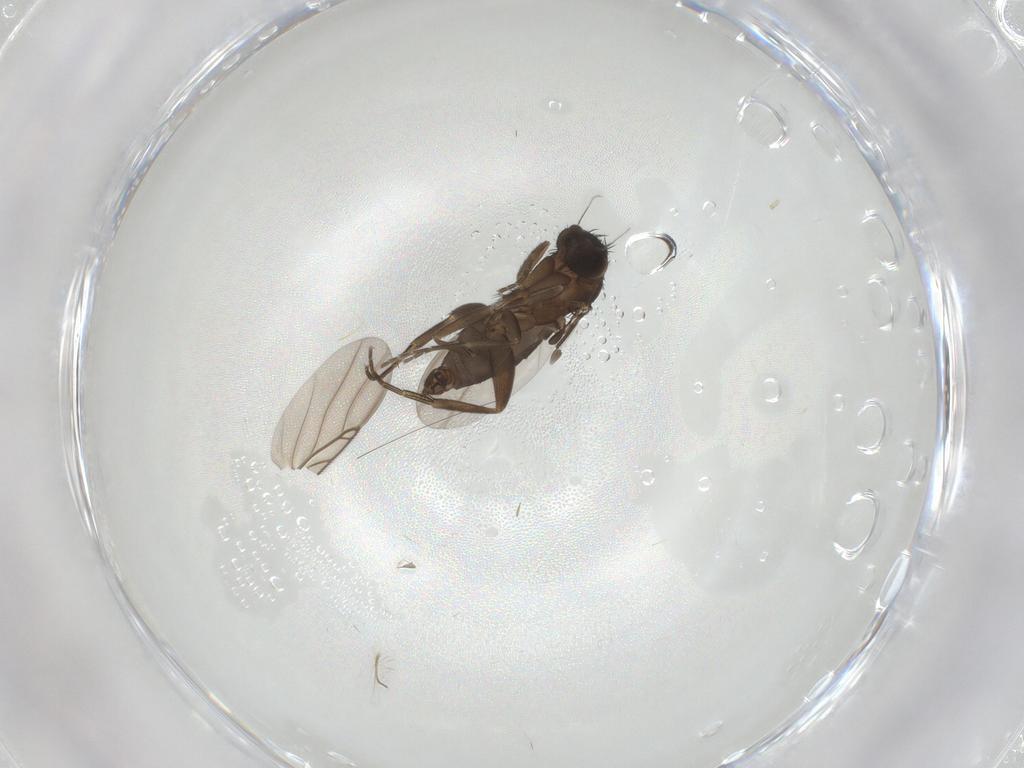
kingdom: Animalia
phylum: Arthropoda
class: Insecta
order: Diptera
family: Phoridae
